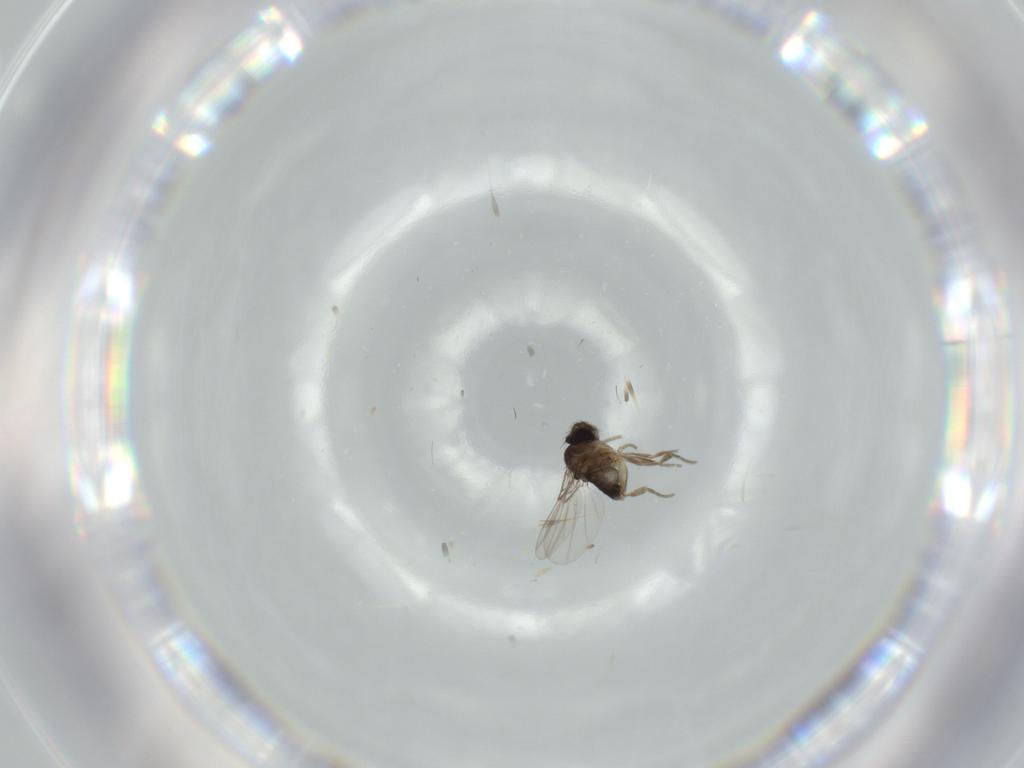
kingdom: Animalia
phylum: Arthropoda
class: Insecta
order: Diptera
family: Phoridae
